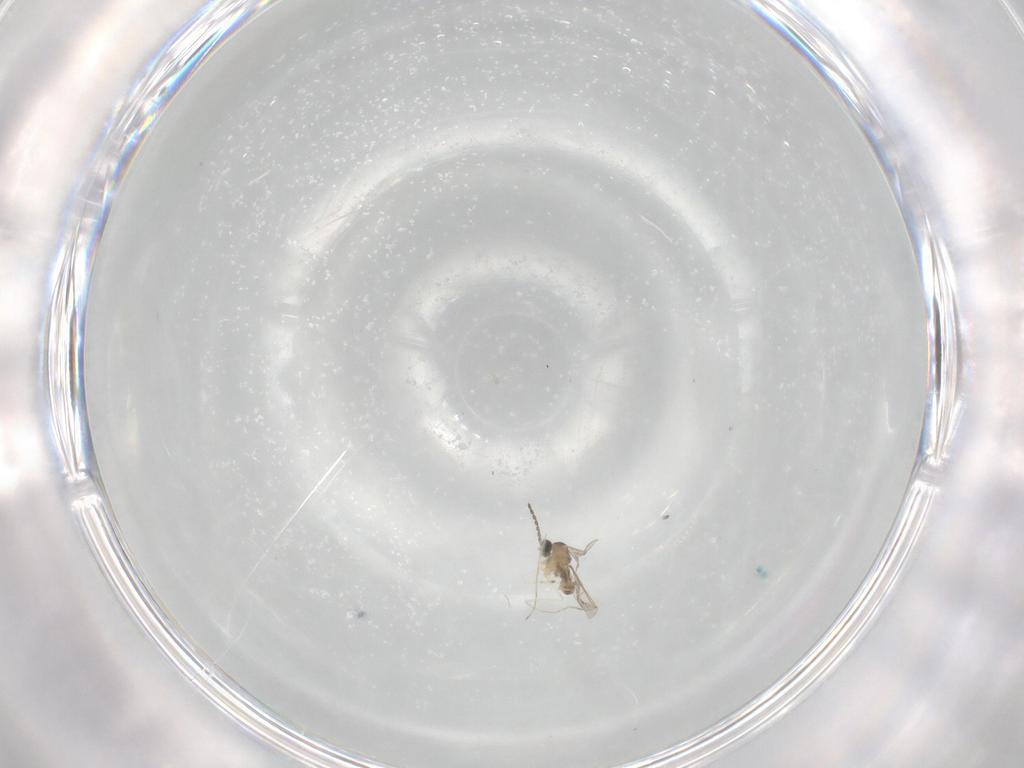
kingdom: Animalia
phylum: Arthropoda
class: Insecta
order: Diptera
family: Cecidomyiidae
